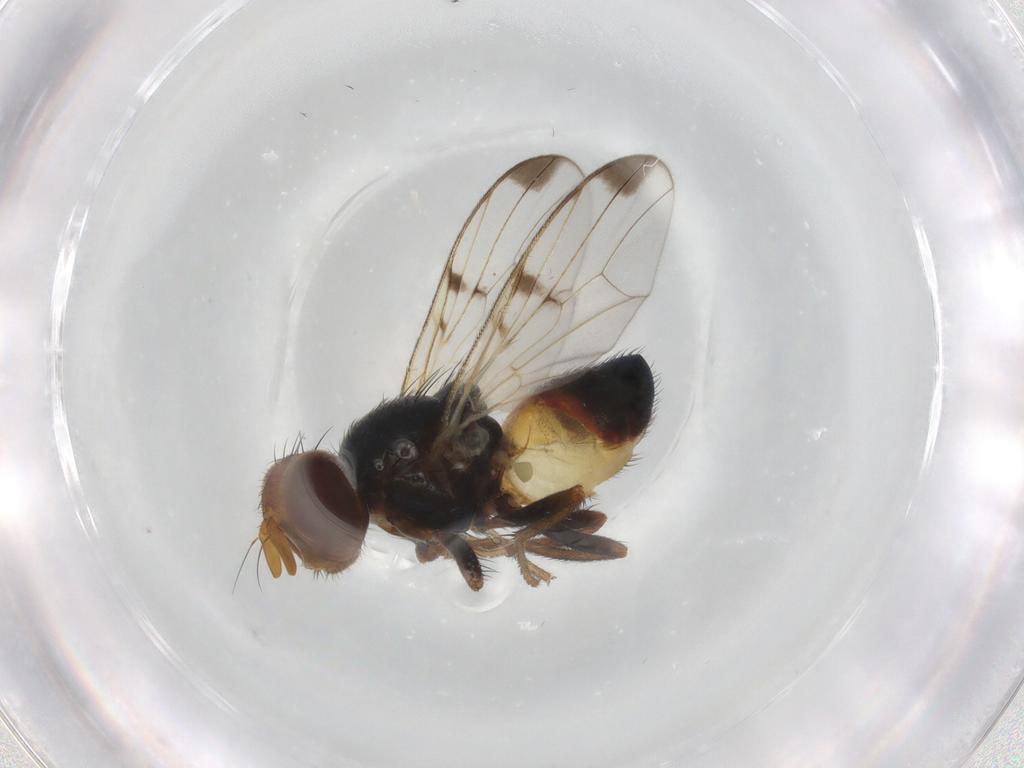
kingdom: Animalia
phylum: Arthropoda
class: Insecta
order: Diptera
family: Platystomatidae
